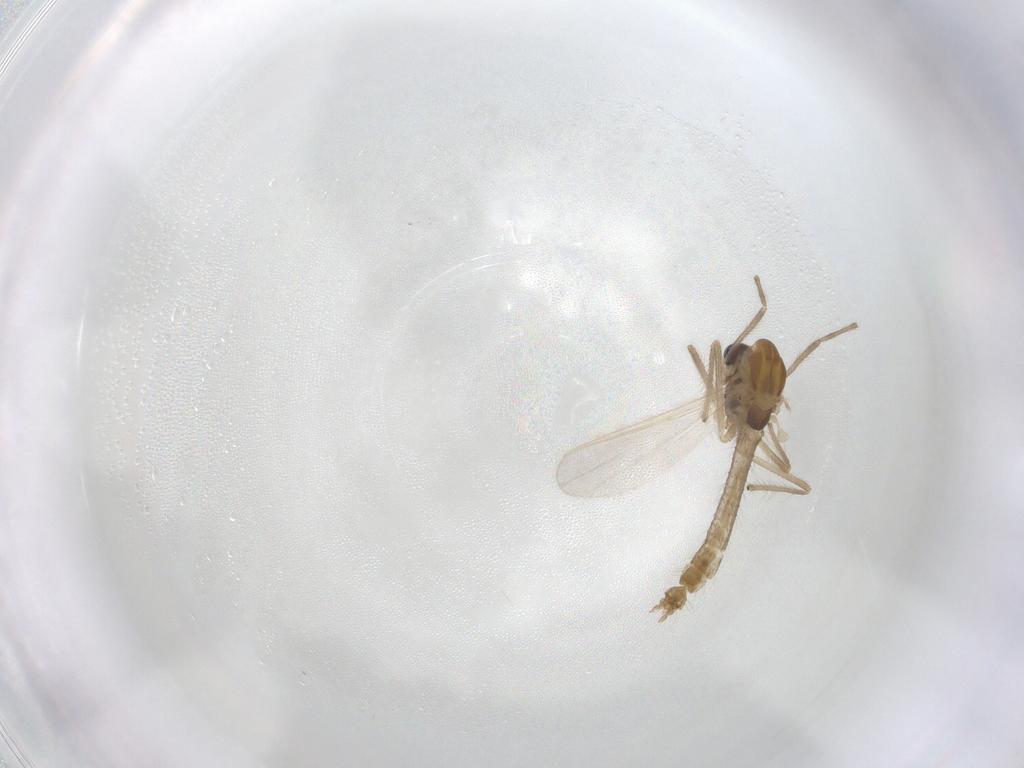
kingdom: Animalia
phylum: Arthropoda
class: Insecta
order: Diptera
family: Chironomidae
